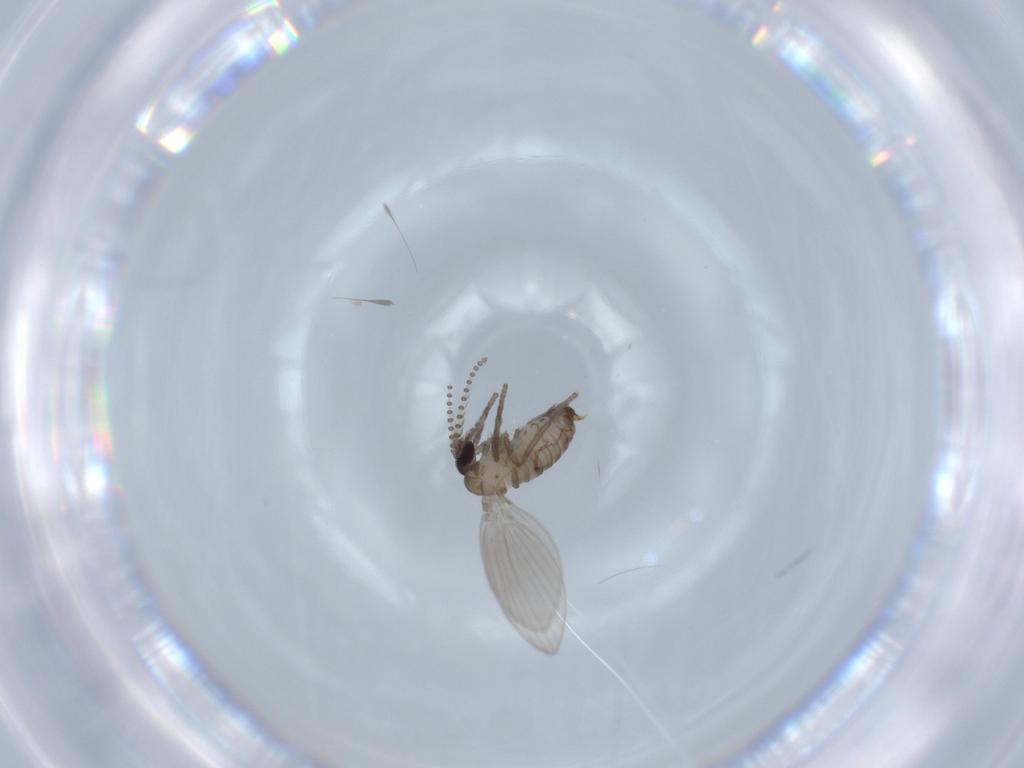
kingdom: Animalia
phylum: Arthropoda
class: Insecta
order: Diptera
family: Psychodidae
